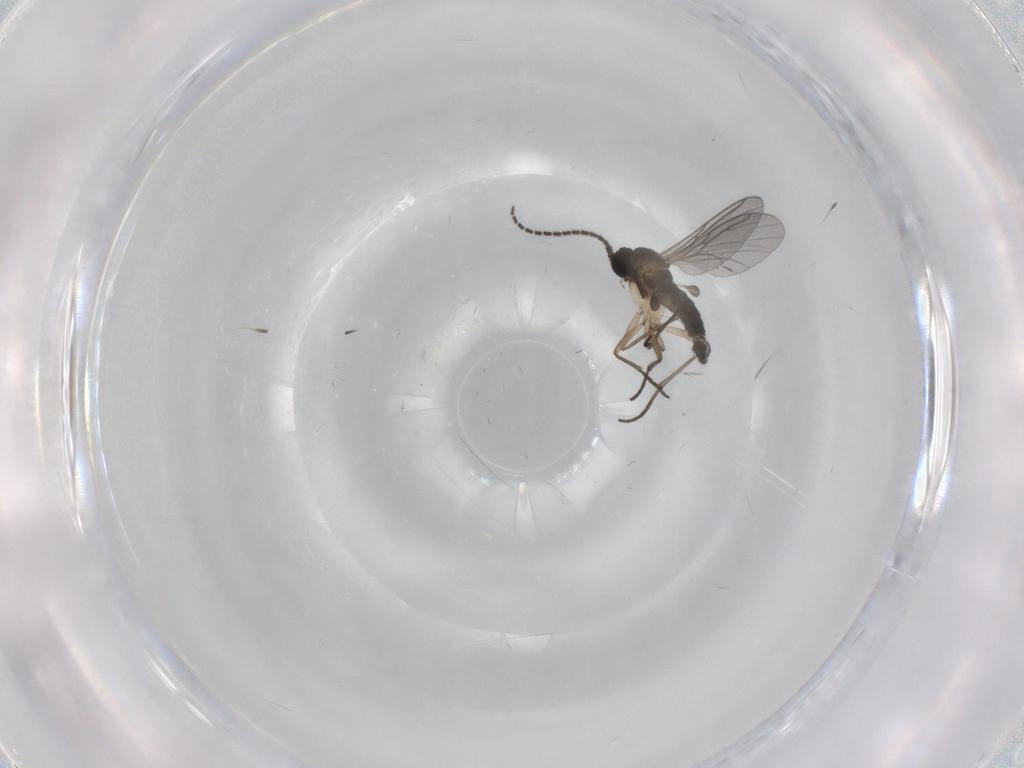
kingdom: Animalia
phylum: Arthropoda
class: Insecta
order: Diptera
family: Sciaridae
